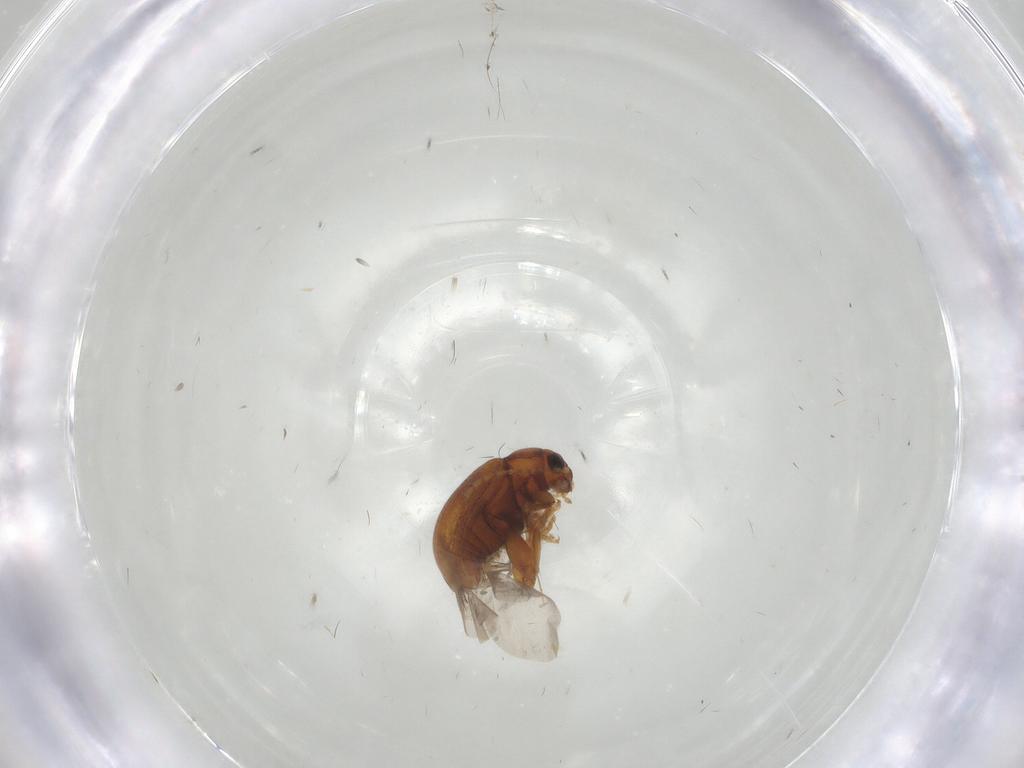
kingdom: Animalia
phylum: Arthropoda
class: Insecta
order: Coleoptera
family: Chrysomelidae
